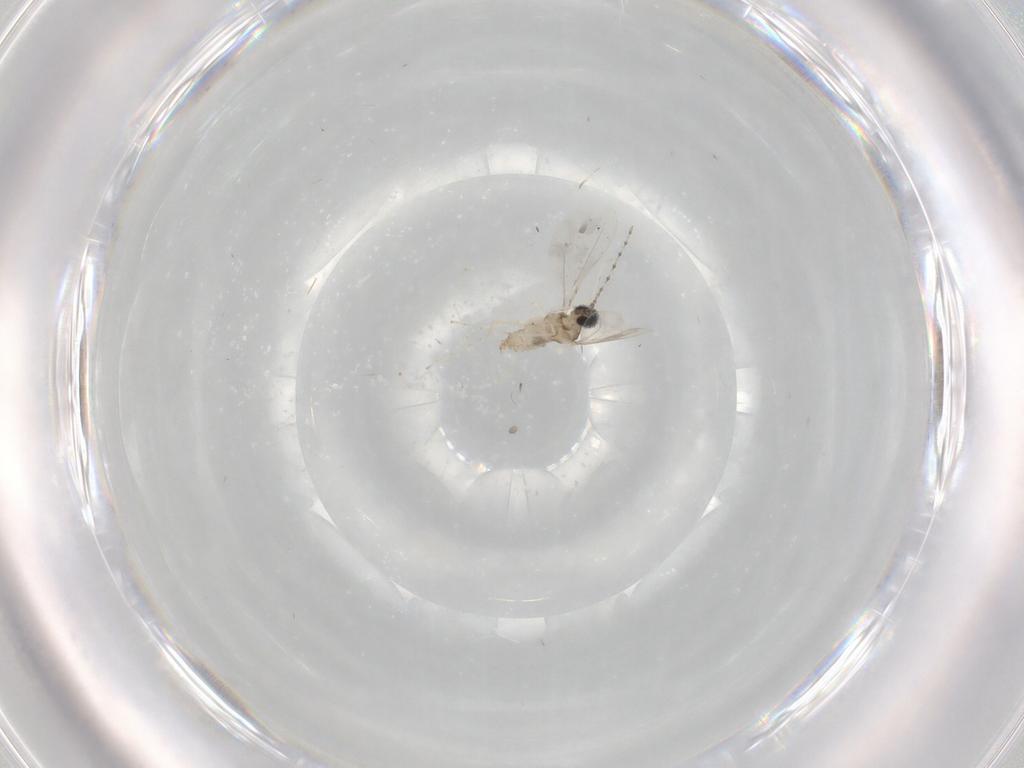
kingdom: Animalia
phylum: Arthropoda
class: Insecta
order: Diptera
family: Cecidomyiidae
